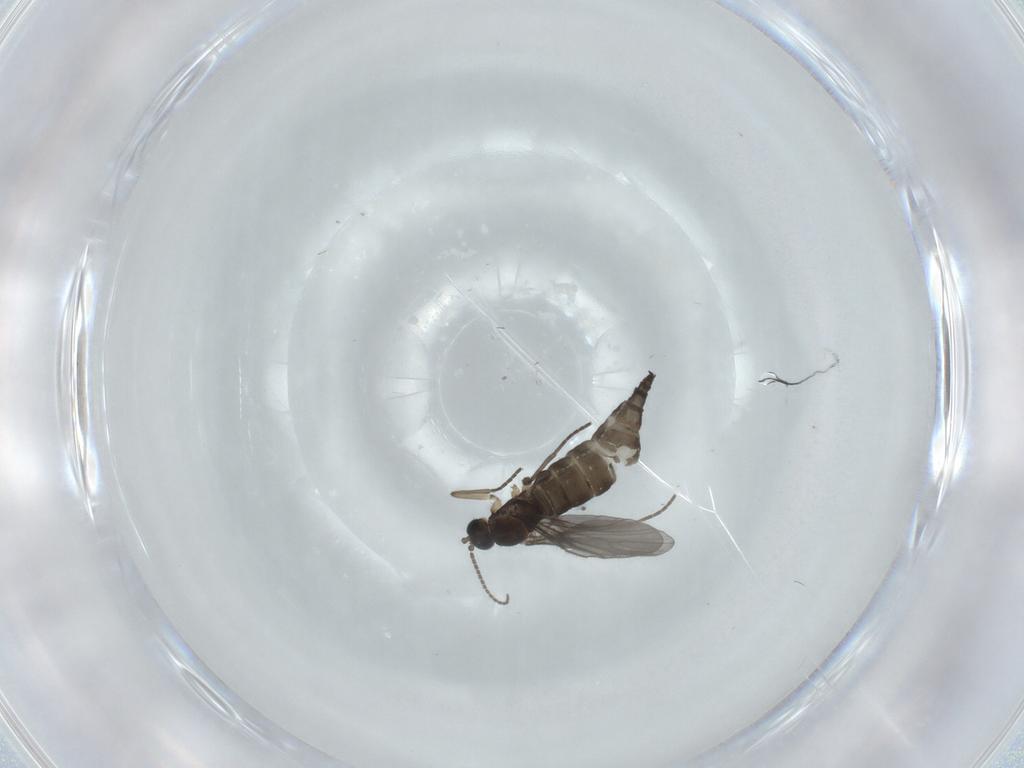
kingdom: Animalia
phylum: Arthropoda
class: Insecta
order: Diptera
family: Sciaridae
